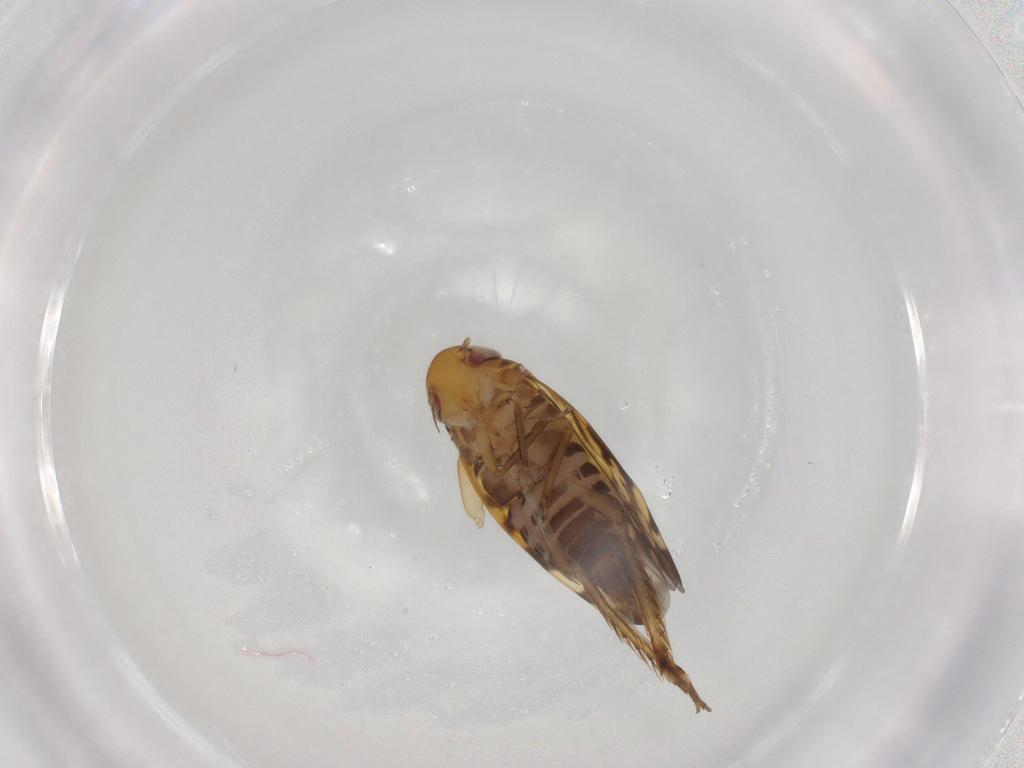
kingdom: Animalia
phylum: Arthropoda
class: Insecta
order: Hemiptera
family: Cicadellidae
